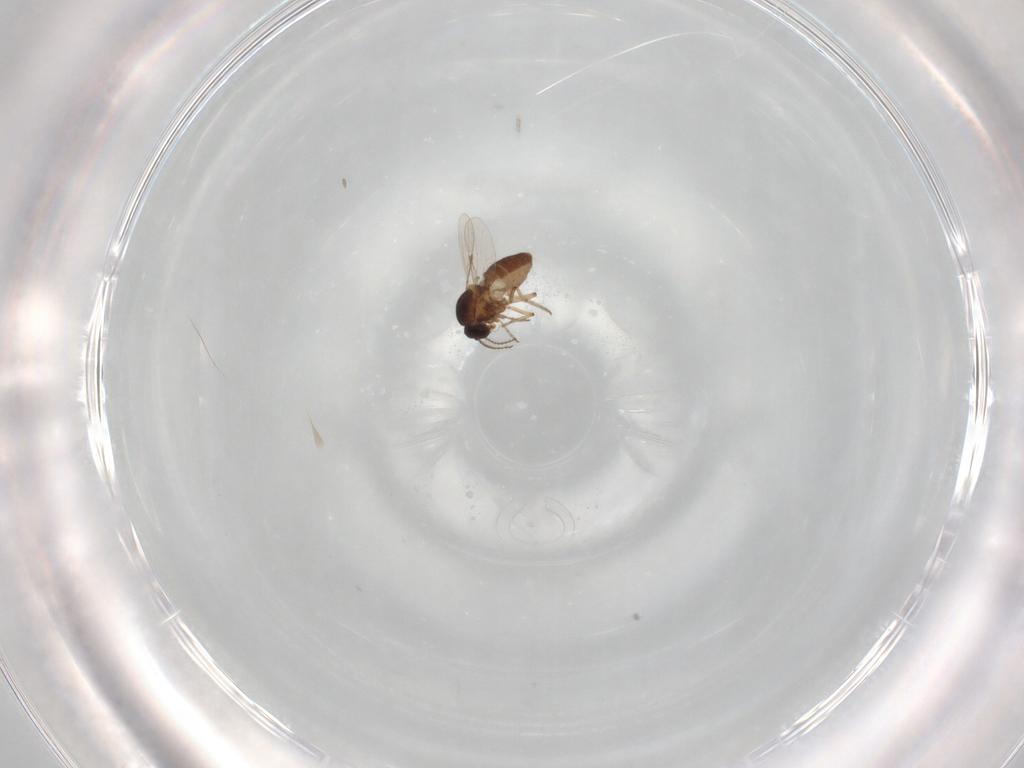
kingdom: Animalia
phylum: Arthropoda
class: Insecta
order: Diptera
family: Ceratopogonidae
